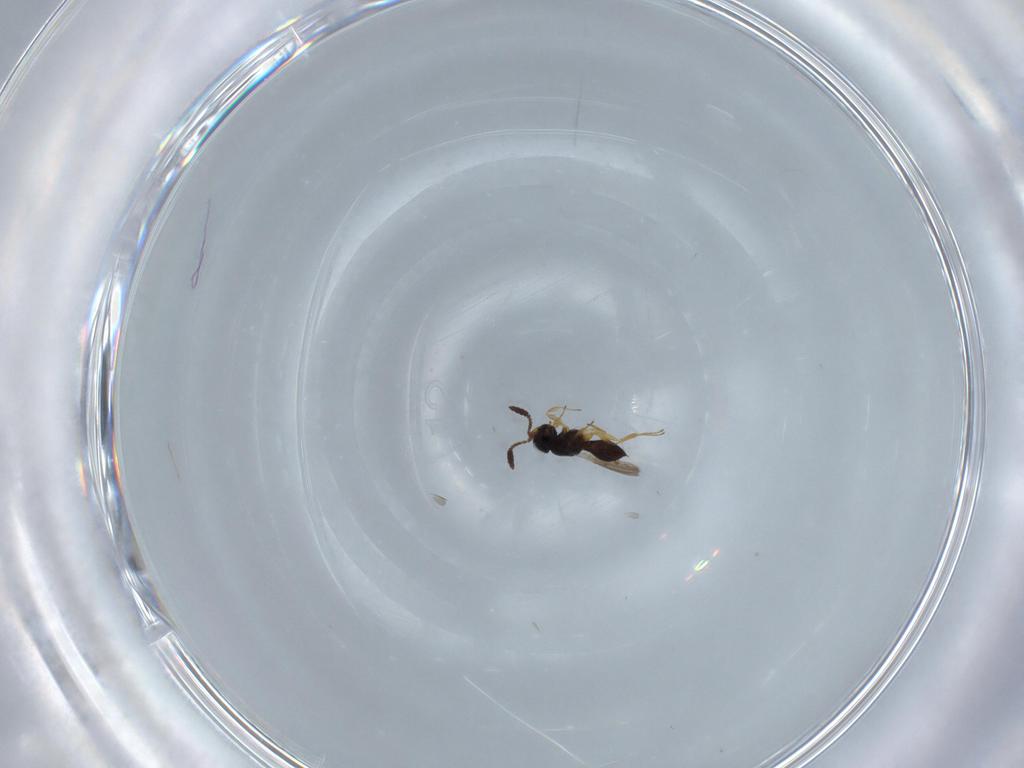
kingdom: Animalia
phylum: Arthropoda
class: Insecta
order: Hymenoptera
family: Scelionidae
